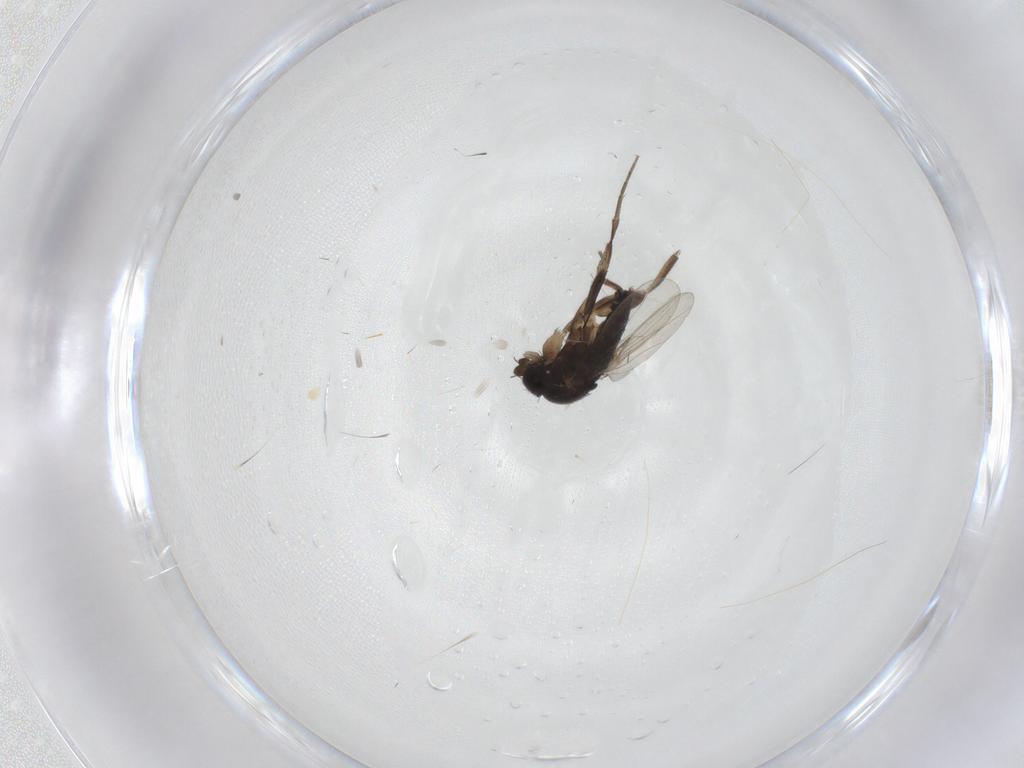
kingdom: Animalia
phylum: Arthropoda
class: Insecta
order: Diptera
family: Phoridae
